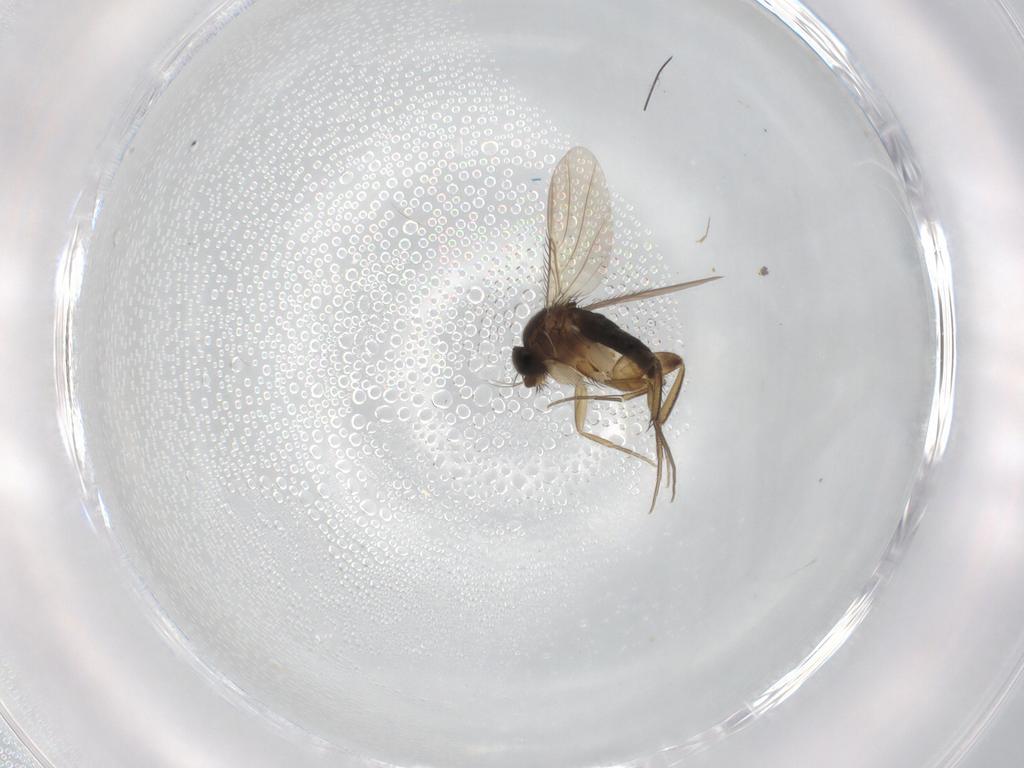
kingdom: Animalia
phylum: Arthropoda
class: Insecta
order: Diptera
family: Phoridae
